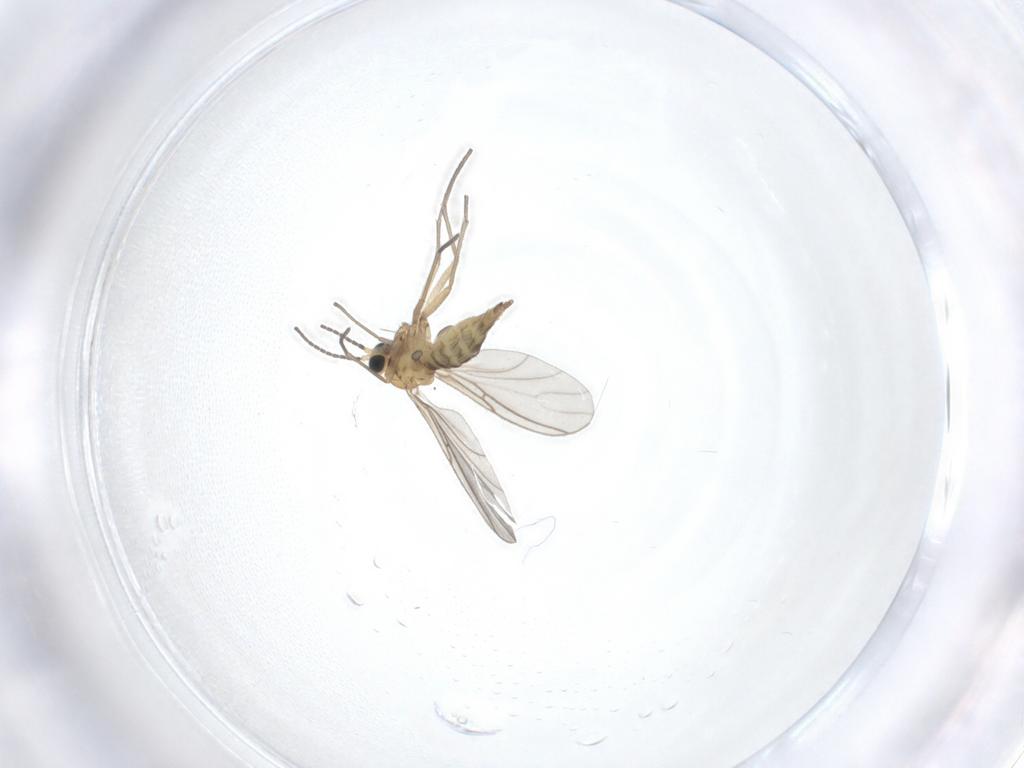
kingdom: Animalia
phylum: Arthropoda
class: Insecta
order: Diptera
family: Sciaridae
